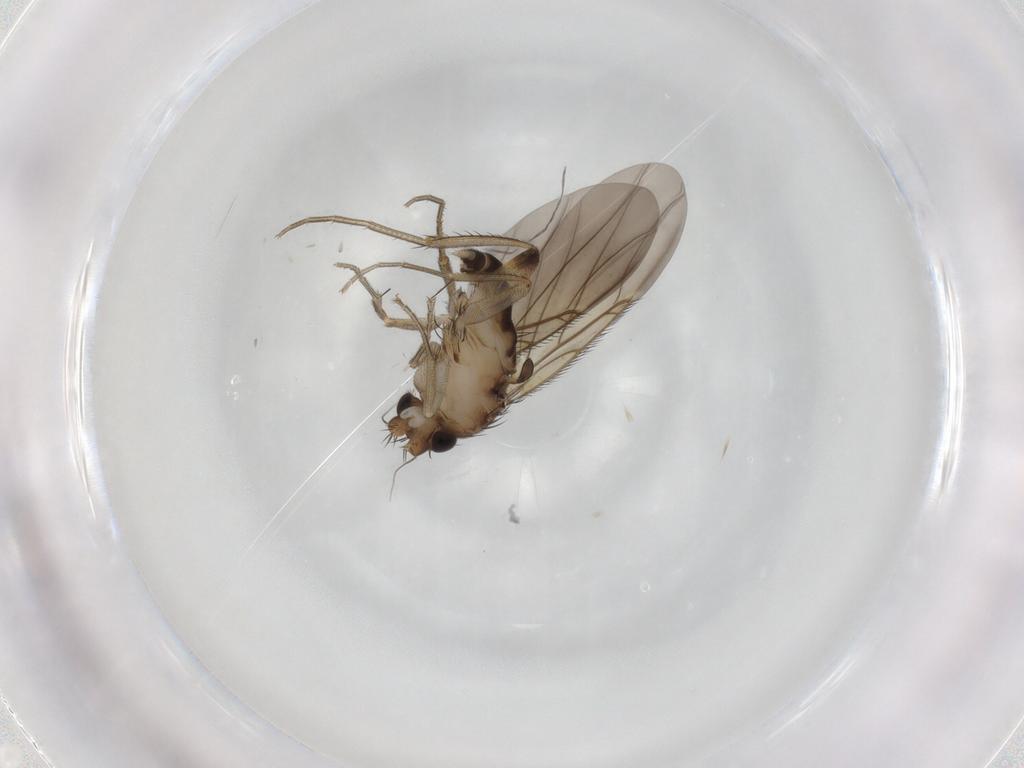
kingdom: Animalia
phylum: Arthropoda
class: Insecta
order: Diptera
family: Phoridae
